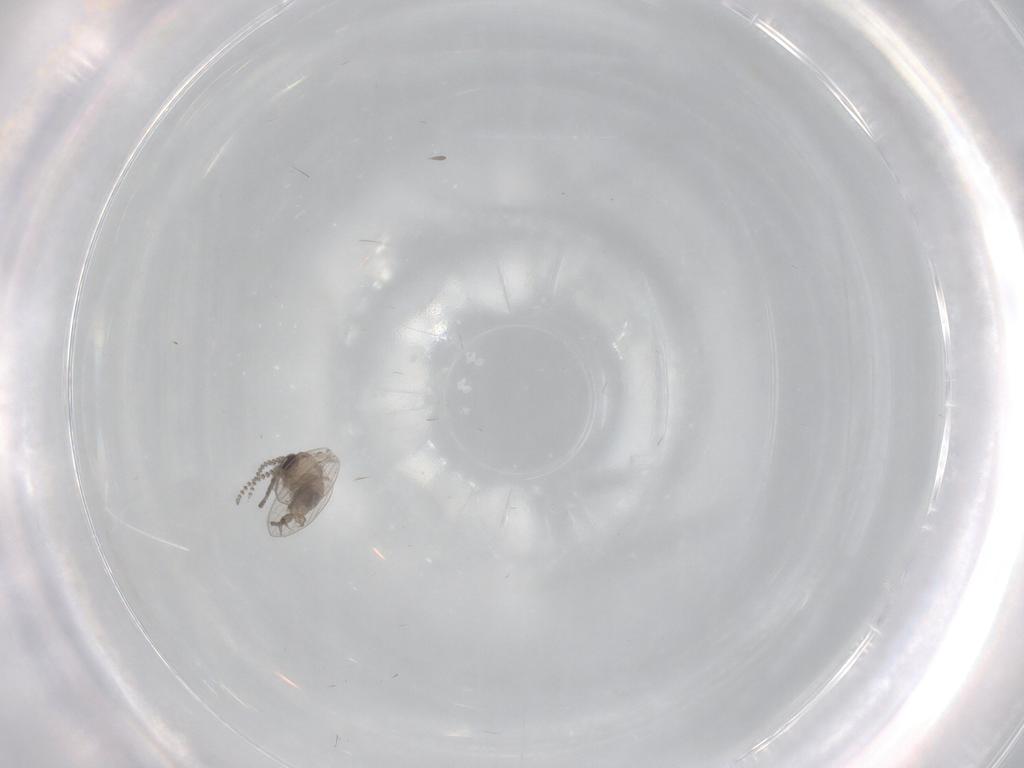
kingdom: Animalia
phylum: Arthropoda
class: Insecta
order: Diptera
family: Psychodidae
